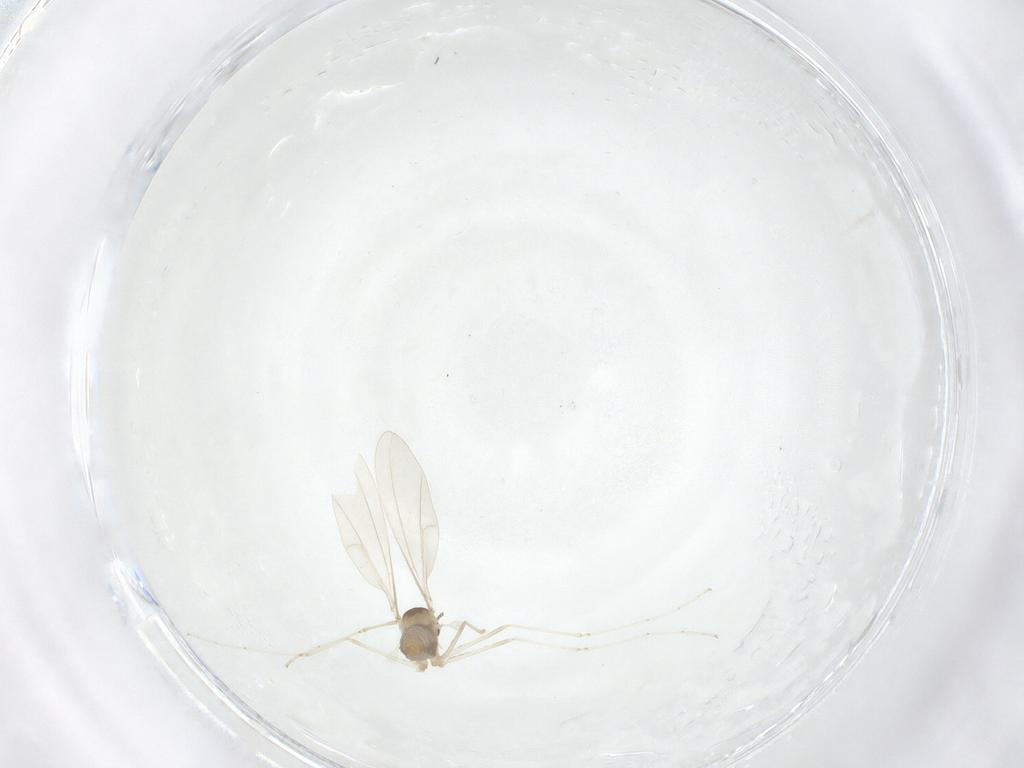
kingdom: Animalia
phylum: Arthropoda
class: Insecta
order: Diptera
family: Cecidomyiidae
